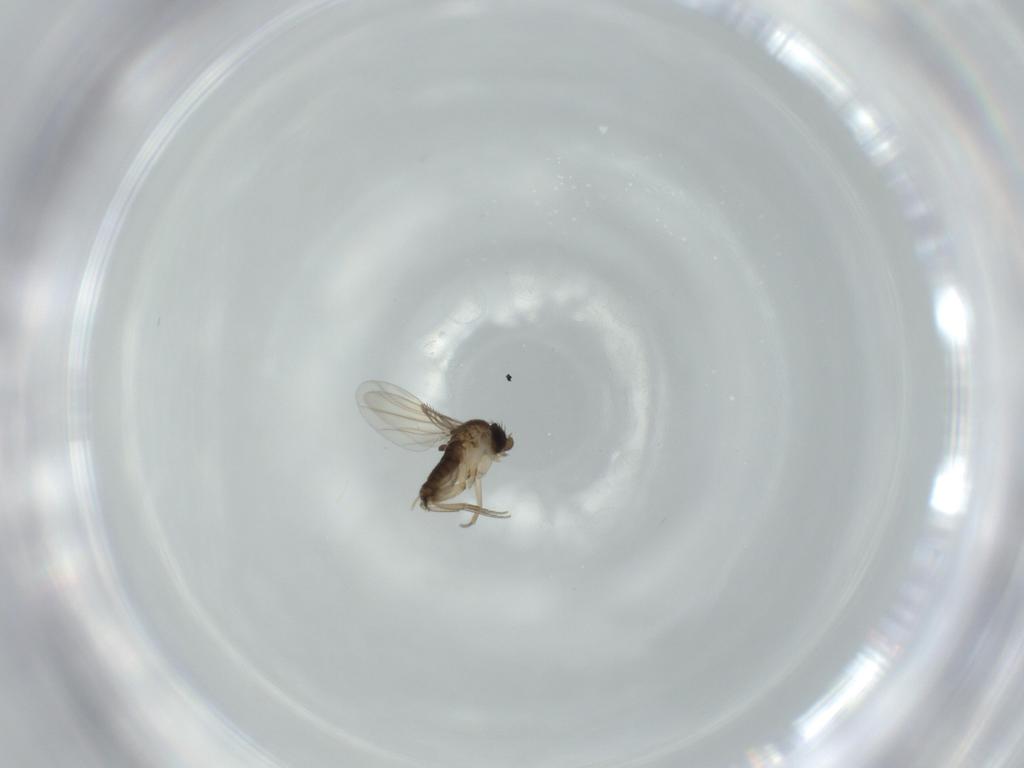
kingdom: Animalia
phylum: Arthropoda
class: Insecta
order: Diptera
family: Phoridae
